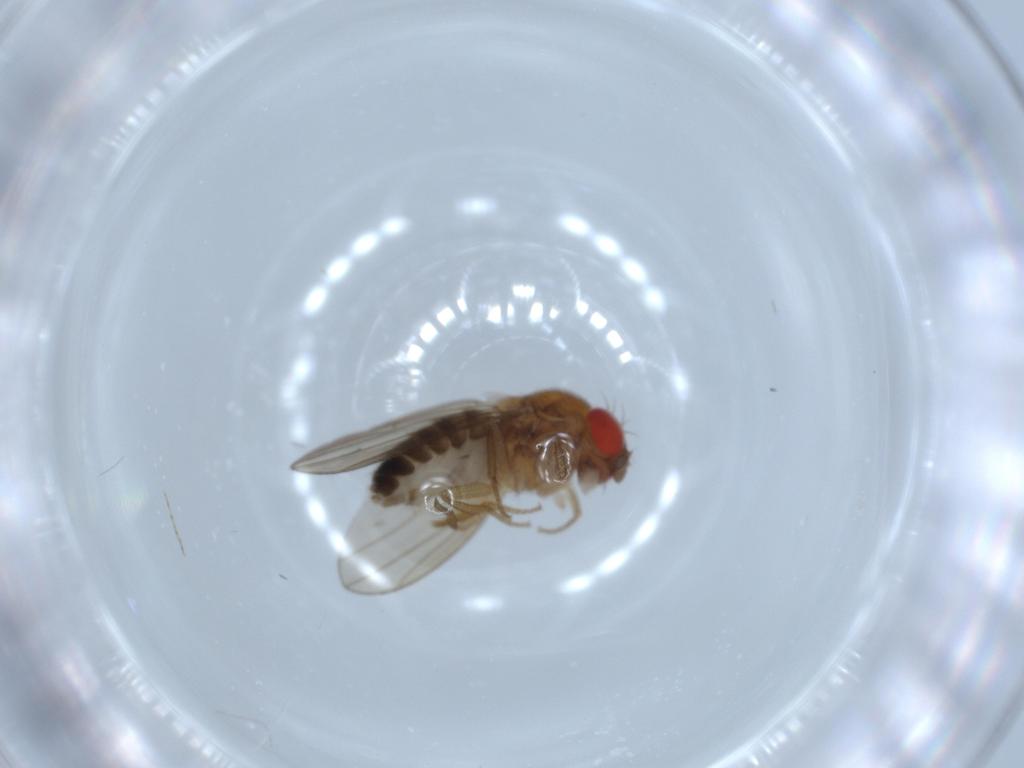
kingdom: Animalia
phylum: Arthropoda
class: Insecta
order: Diptera
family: Drosophilidae
